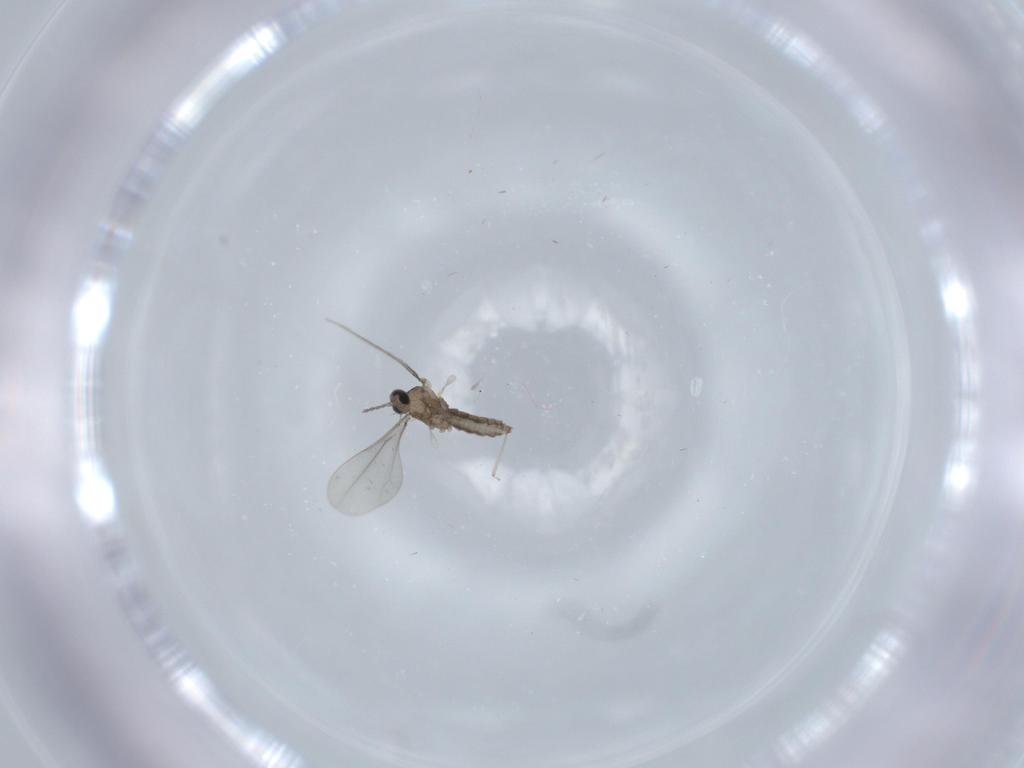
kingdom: Animalia
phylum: Arthropoda
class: Insecta
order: Diptera
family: Cecidomyiidae
